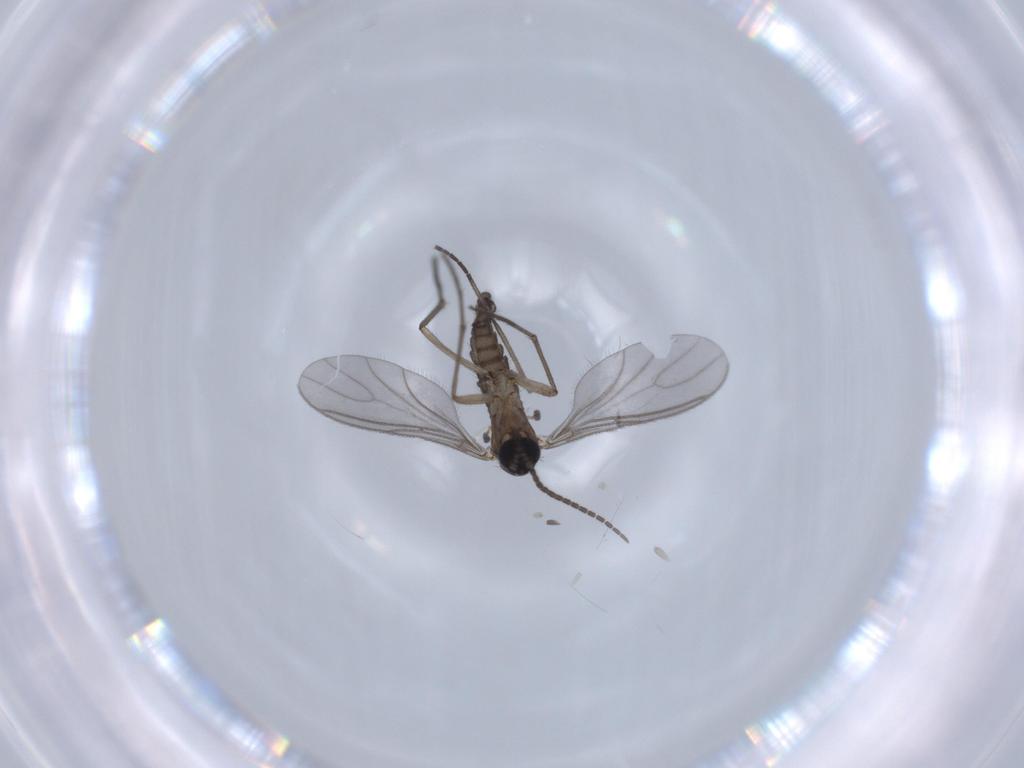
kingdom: Animalia
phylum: Arthropoda
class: Insecta
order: Diptera
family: Sciaridae
